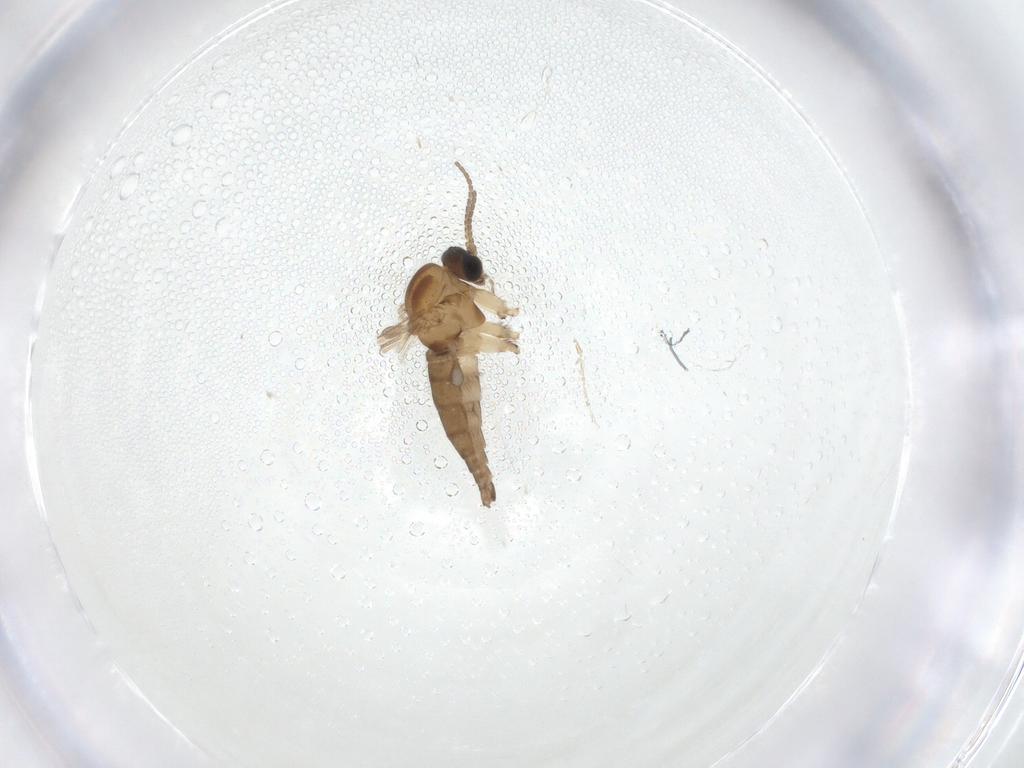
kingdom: Animalia
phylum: Arthropoda
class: Insecta
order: Diptera
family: Sciaridae
